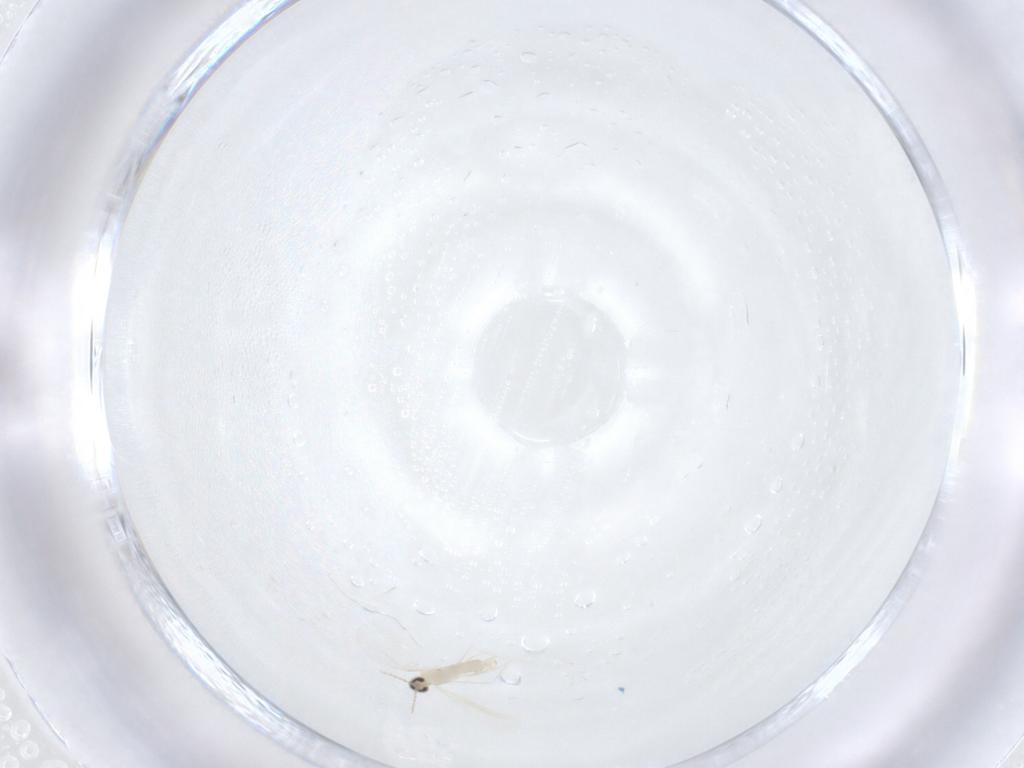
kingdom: Animalia
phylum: Arthropoda
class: Insecta
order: Diptera
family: Cecidomyiidae
